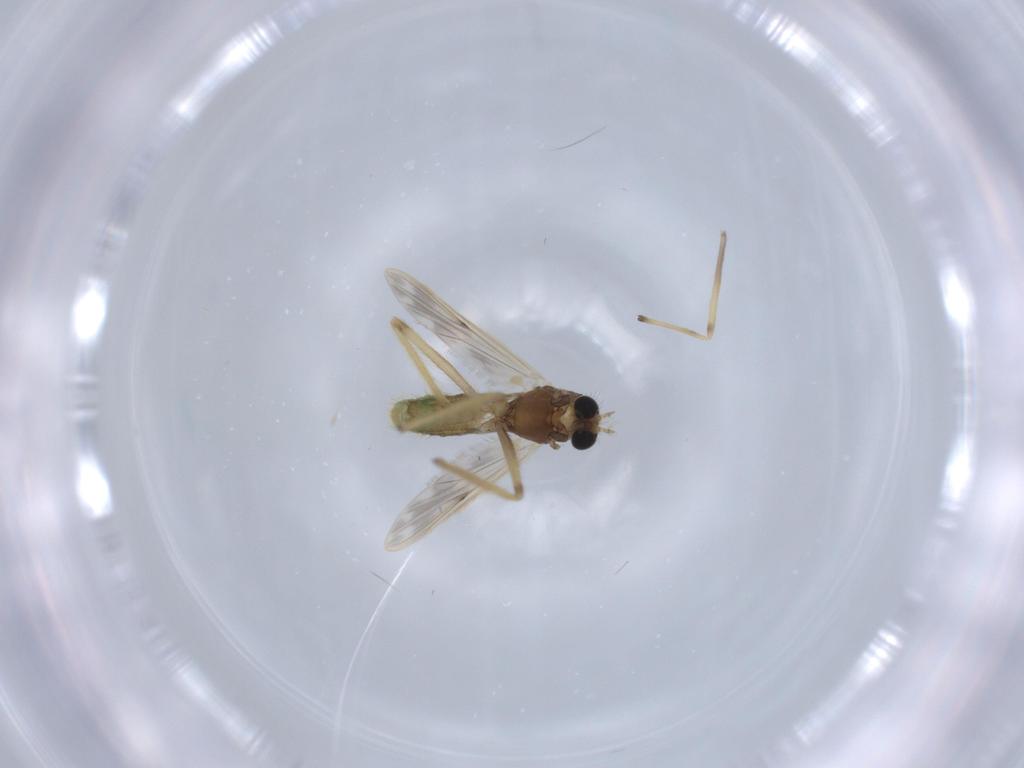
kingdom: Animalia
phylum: Arthropoda
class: Insecta
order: Diptera
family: Chironomidae
